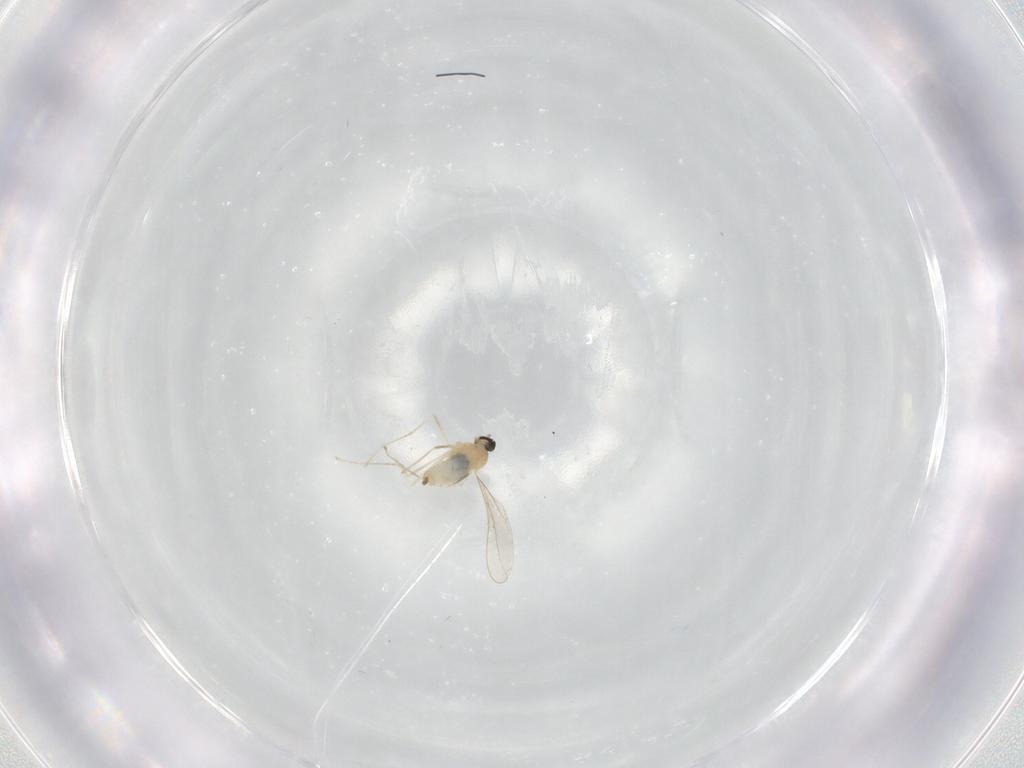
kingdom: Animalia
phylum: Arthropoda
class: Insecta
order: Diptera
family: Cecidomyiidae
